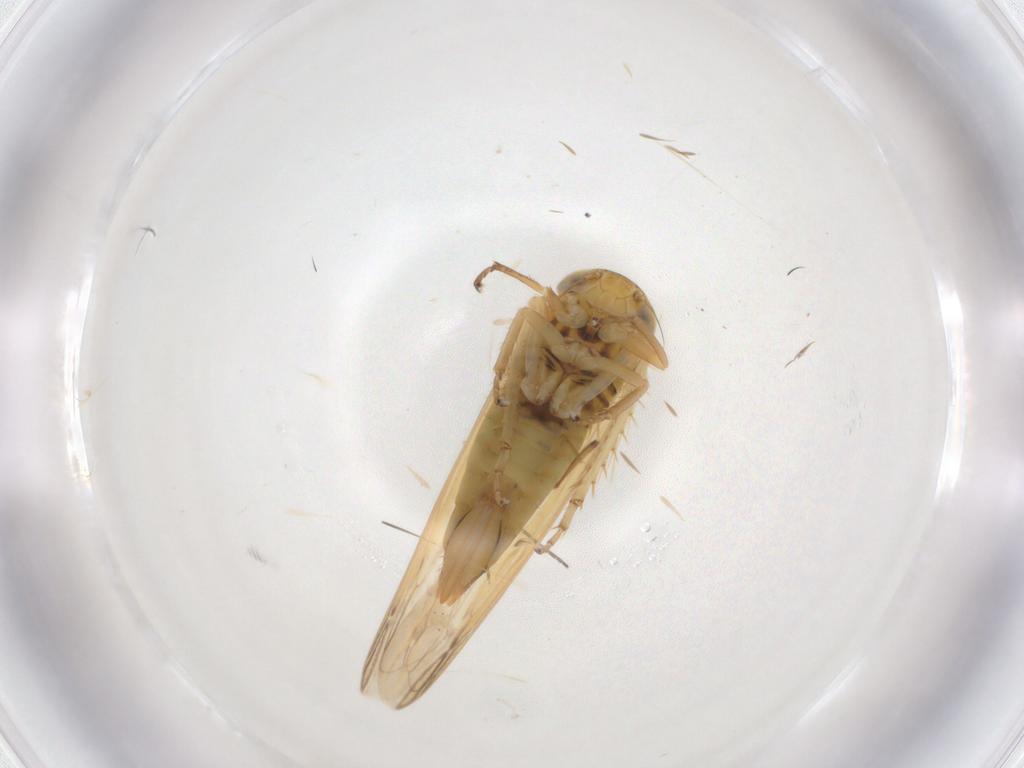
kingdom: Animalia
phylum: Arthropoda
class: Insecta
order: Hemiptera
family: Cicadellidae
